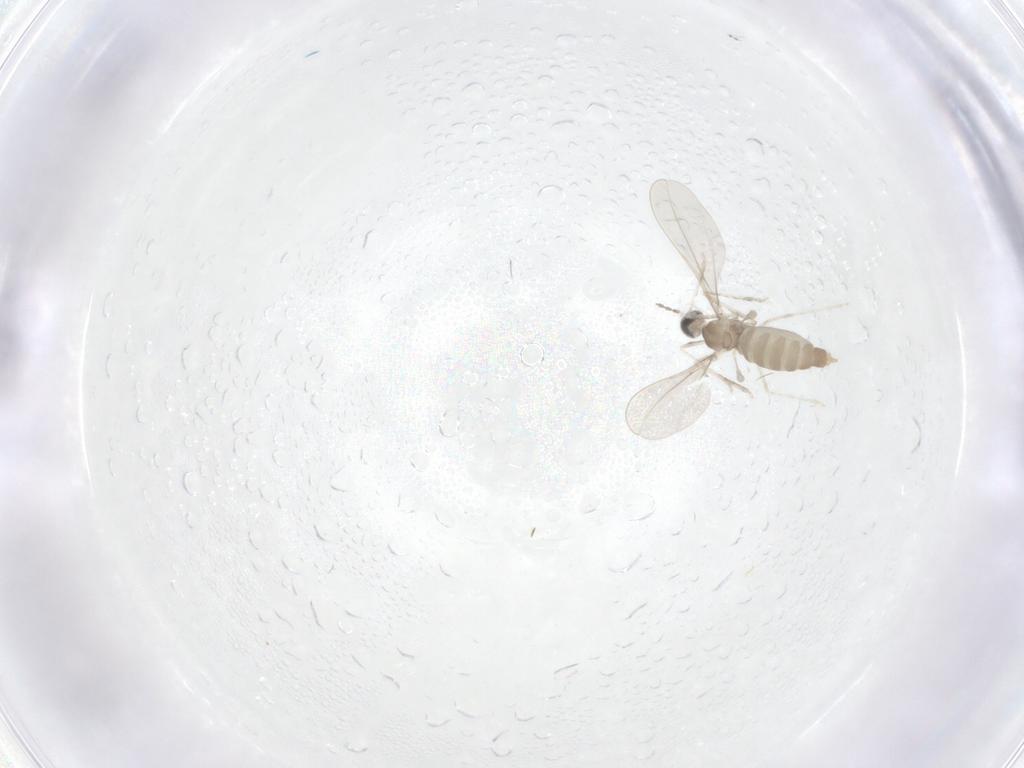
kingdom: Animalia
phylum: Arthropoda
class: Insecta
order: Diptera
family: Cecidomyiidae
